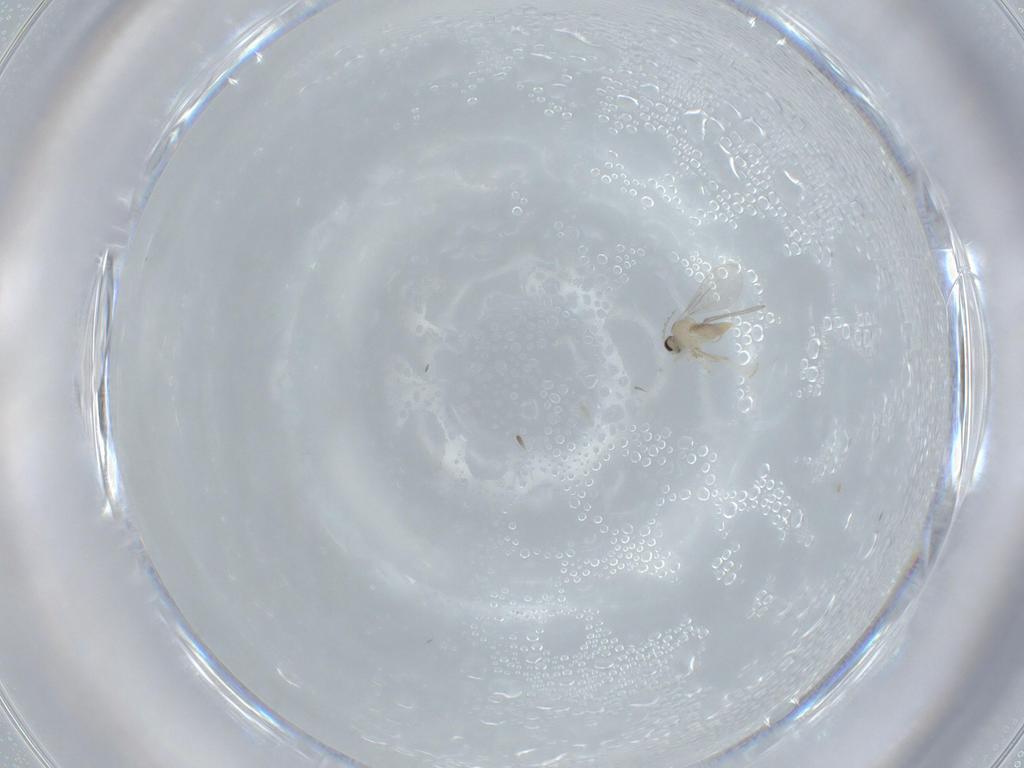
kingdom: Animalia
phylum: Arthropoda
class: Insecta
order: Diptera
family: Cecidomyiidae
